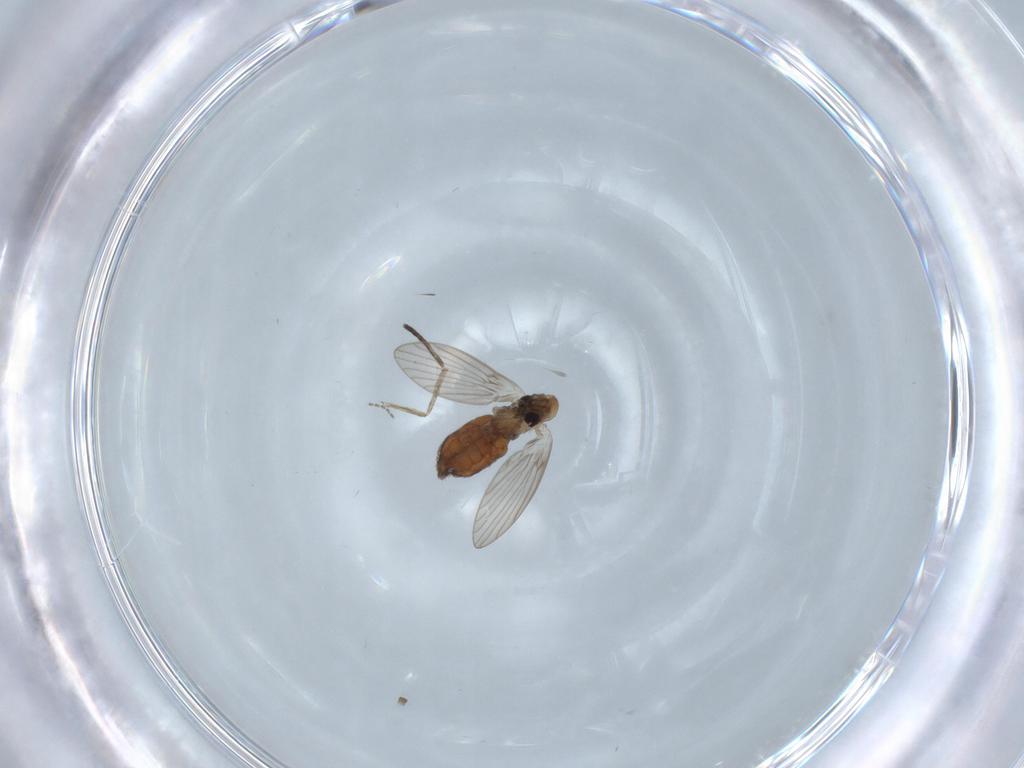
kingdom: Animalia
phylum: Arthropoda
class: Insecta
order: Diptera
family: Psychodidae
